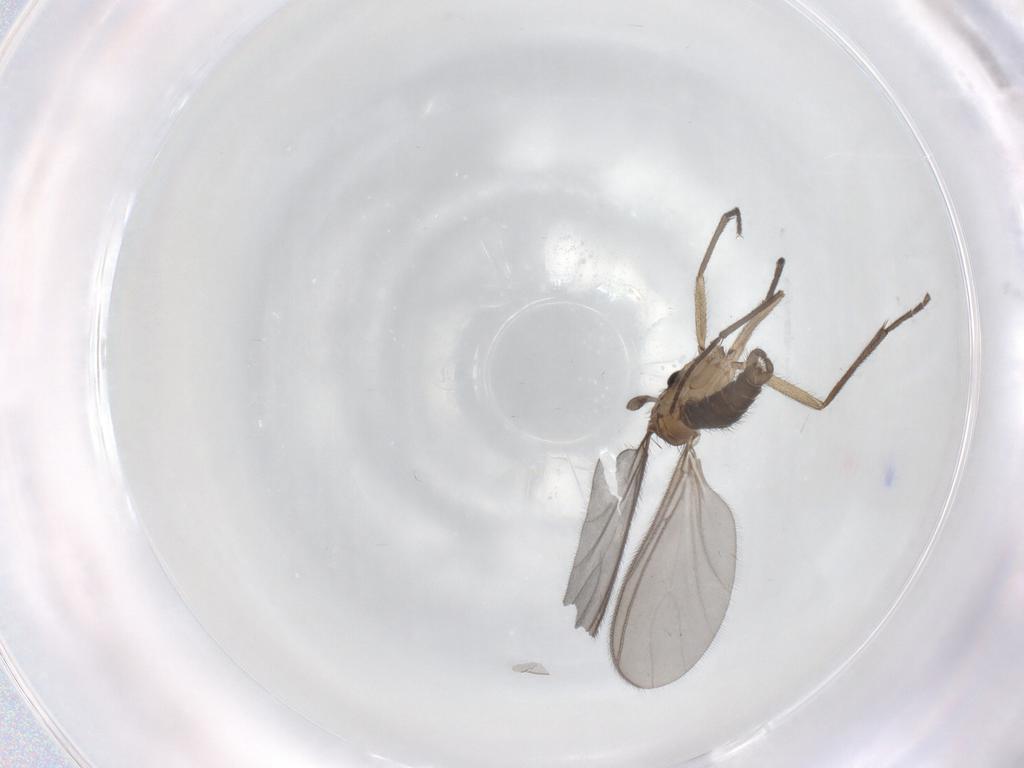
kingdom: Animalia
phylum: Arthropoda
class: Insecta
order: Diptera
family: Sciaridae
